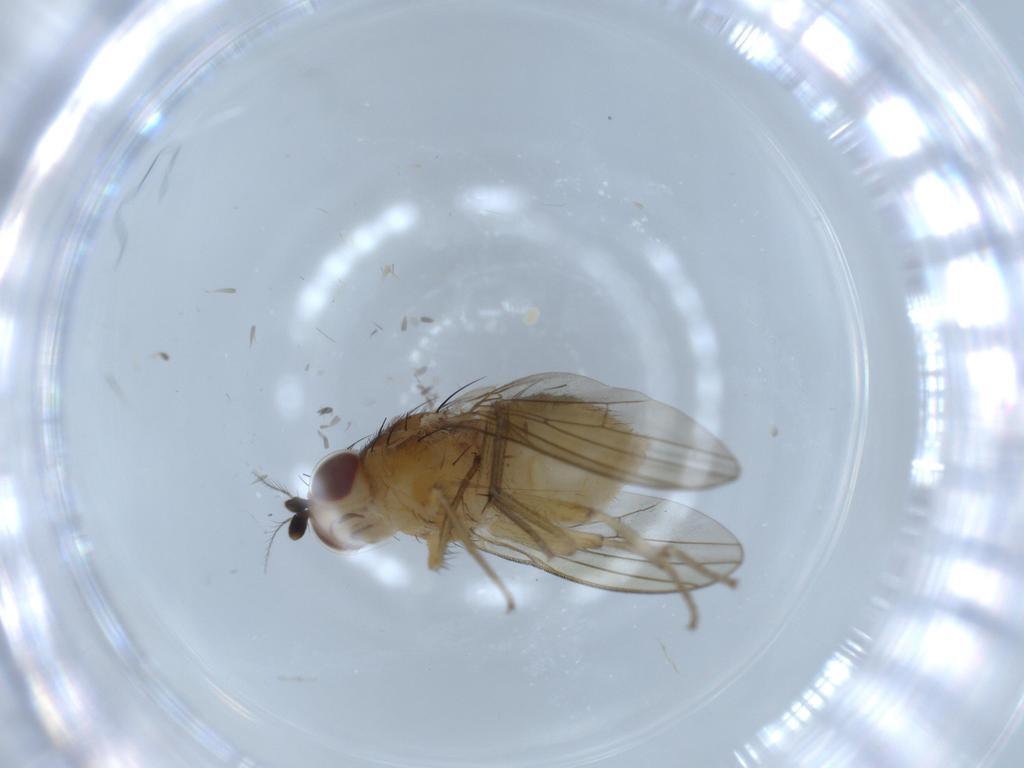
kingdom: Animalia
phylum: Arthropoda
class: Insecta
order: Diptera
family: Lauxaniidae
